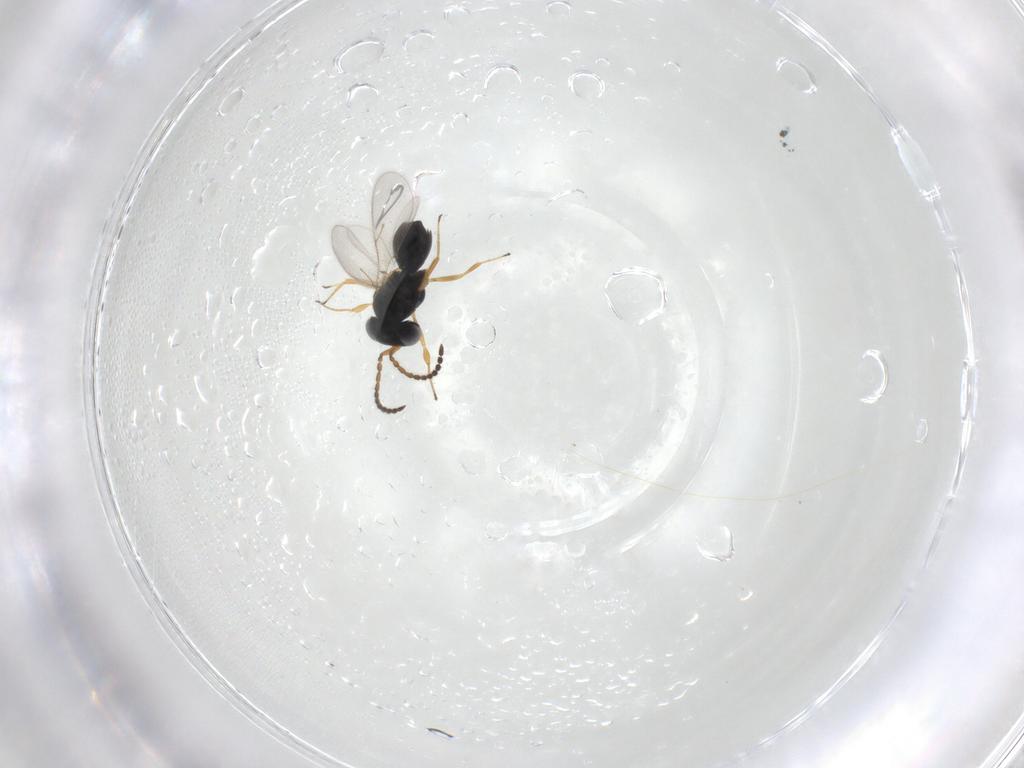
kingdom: Animalia
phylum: Arthropoda
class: Insecta
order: Hymenoptera
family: Scelionidae
